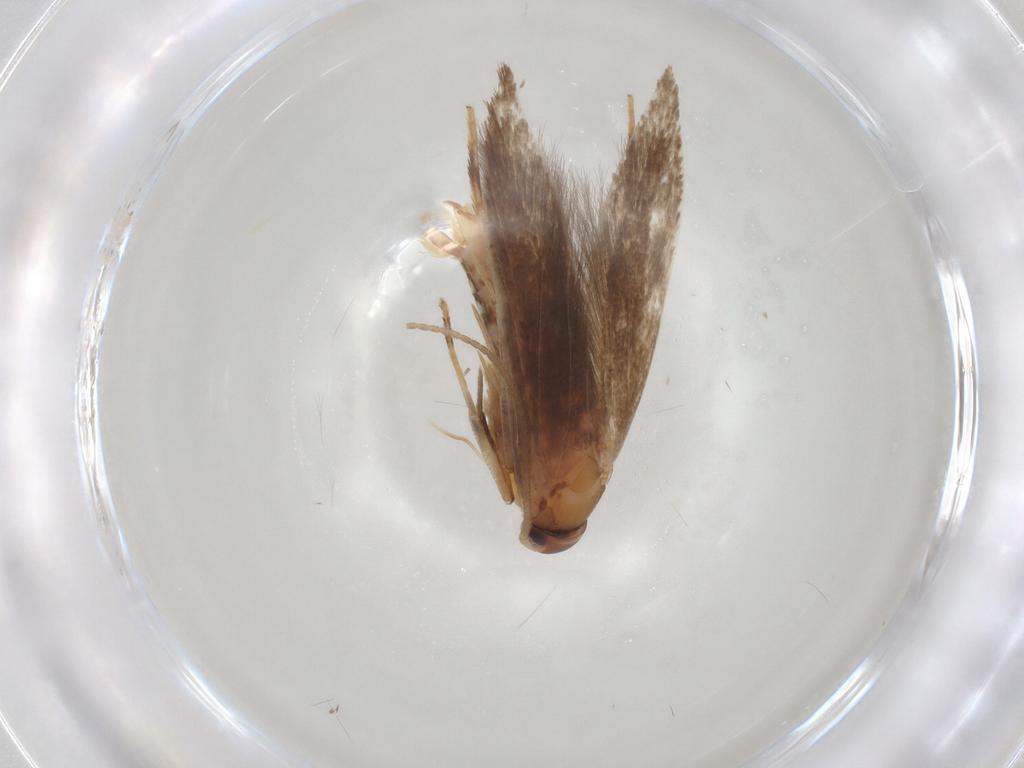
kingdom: Animalia
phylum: Arthropoda
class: Insecta
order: Lepidoptera
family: Cosmopterigidae
